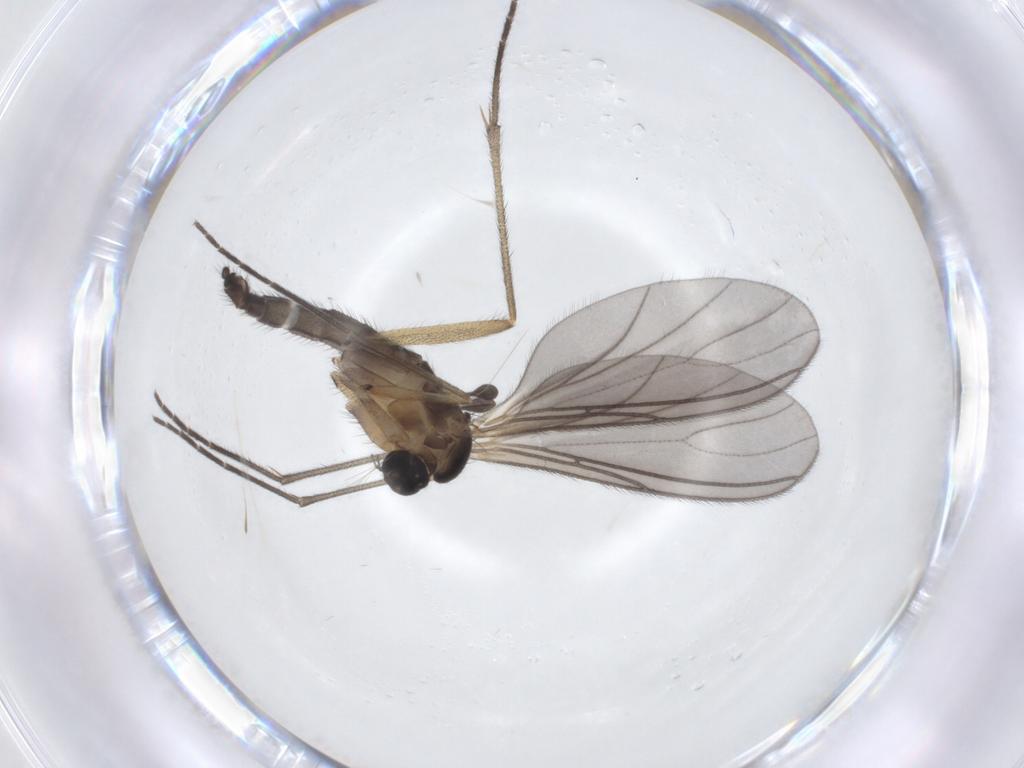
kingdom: Animalia
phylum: Arthropoda
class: Insecta
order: Diptera
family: Sciaridae
